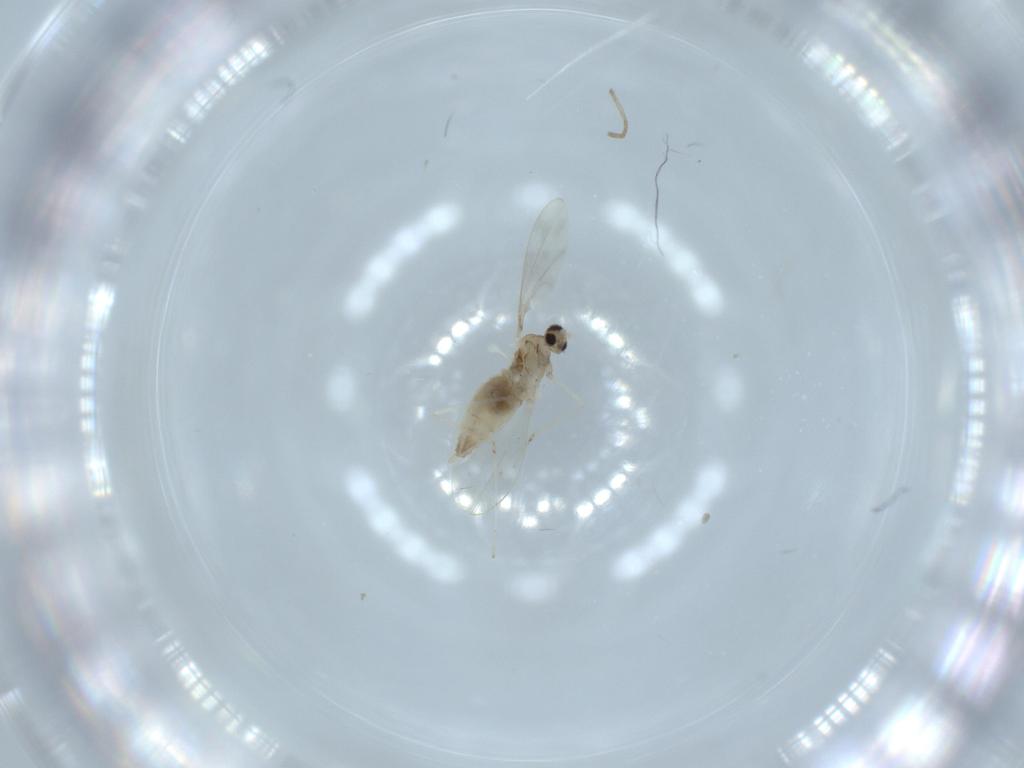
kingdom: Animalia
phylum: Arthropoda
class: Insecta
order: Diptera
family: Cecidomyiidae
